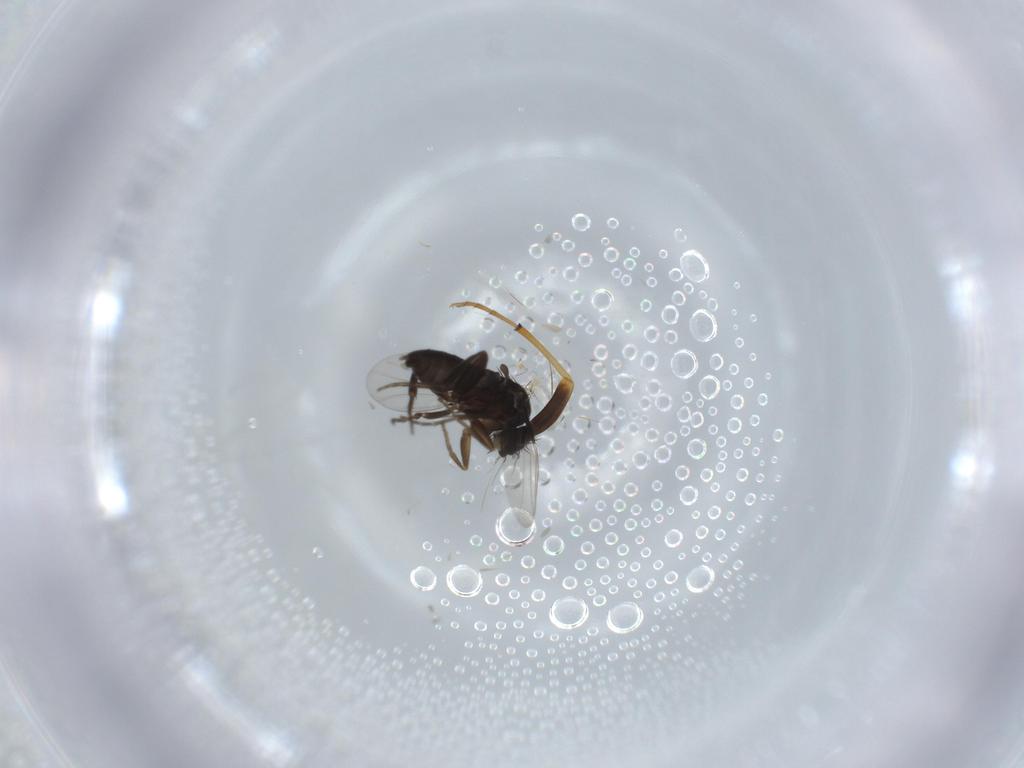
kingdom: Animalia
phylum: Arthropoda
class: Insecta
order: Diptera
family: Phoridae
